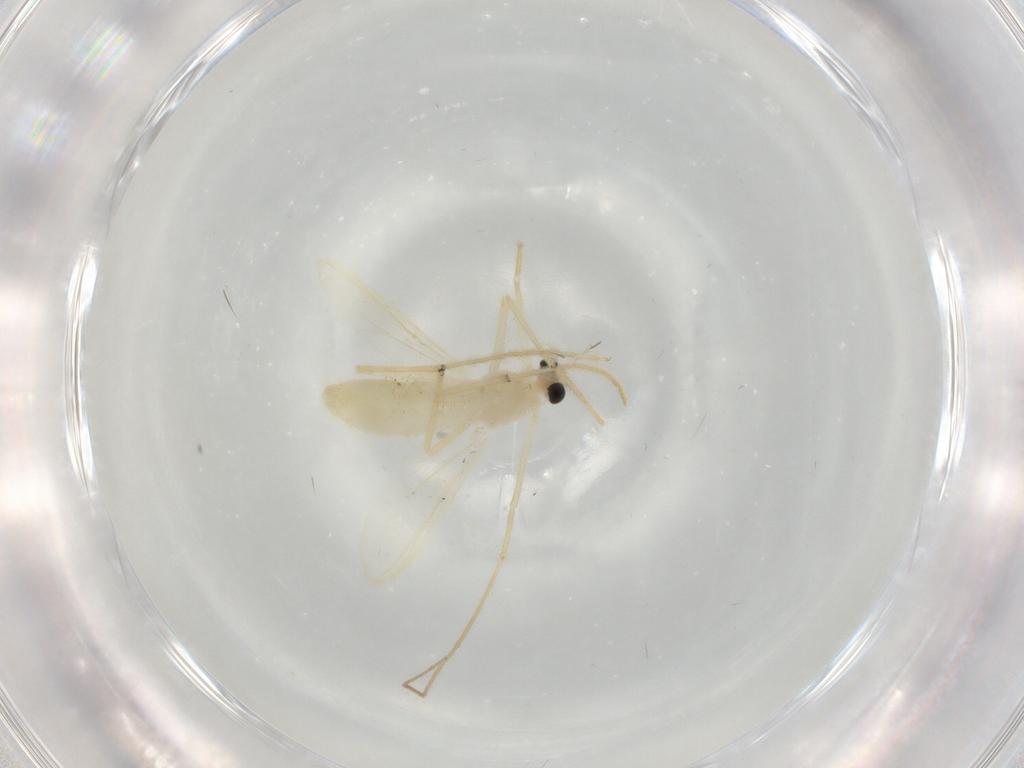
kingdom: Animalia
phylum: Arthropoda
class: Insecta
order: Diptera
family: Chironomidae
